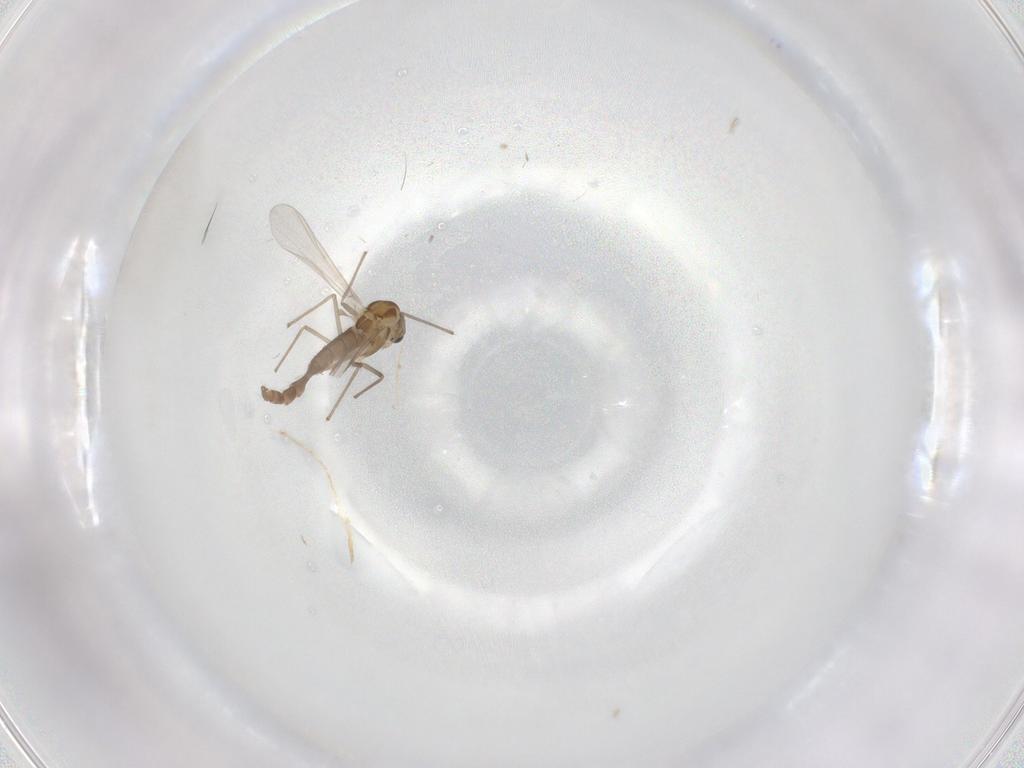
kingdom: Animalia
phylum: Arthropoda
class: Insecta
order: Diptera
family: Chironomidae
